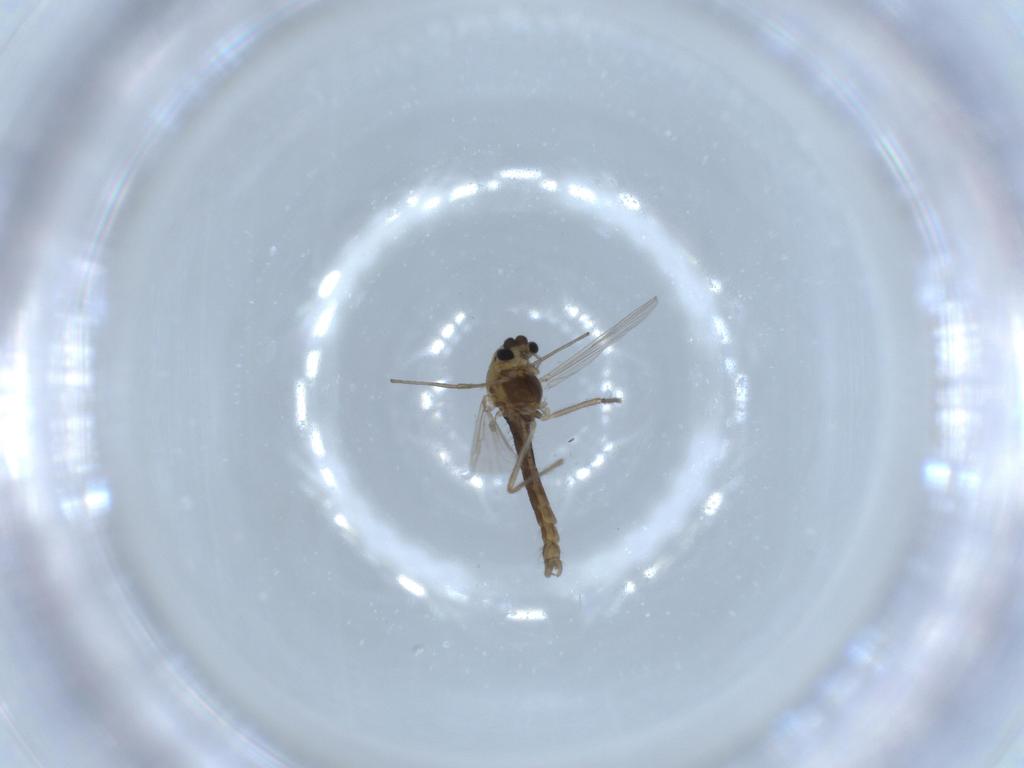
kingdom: Animalia
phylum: Arthropoda
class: Insecta
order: Diptera
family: Chironomidae
